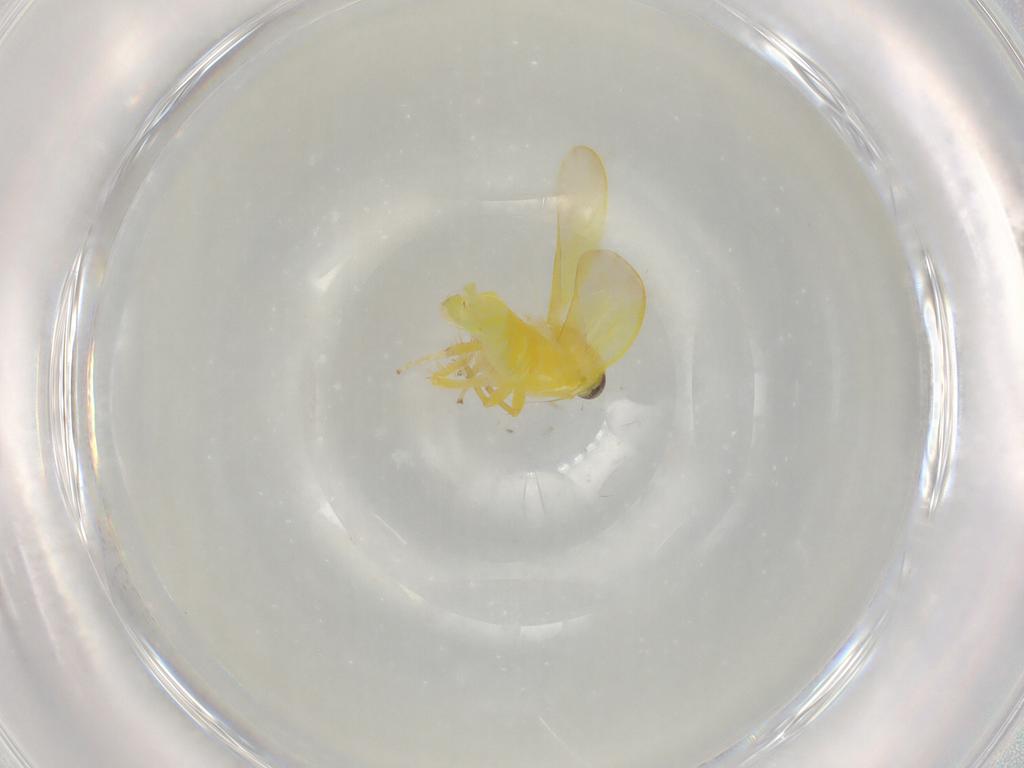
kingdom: Animalia
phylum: Arthropoda
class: Insecta
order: Hemiptera
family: Cicadellidae
